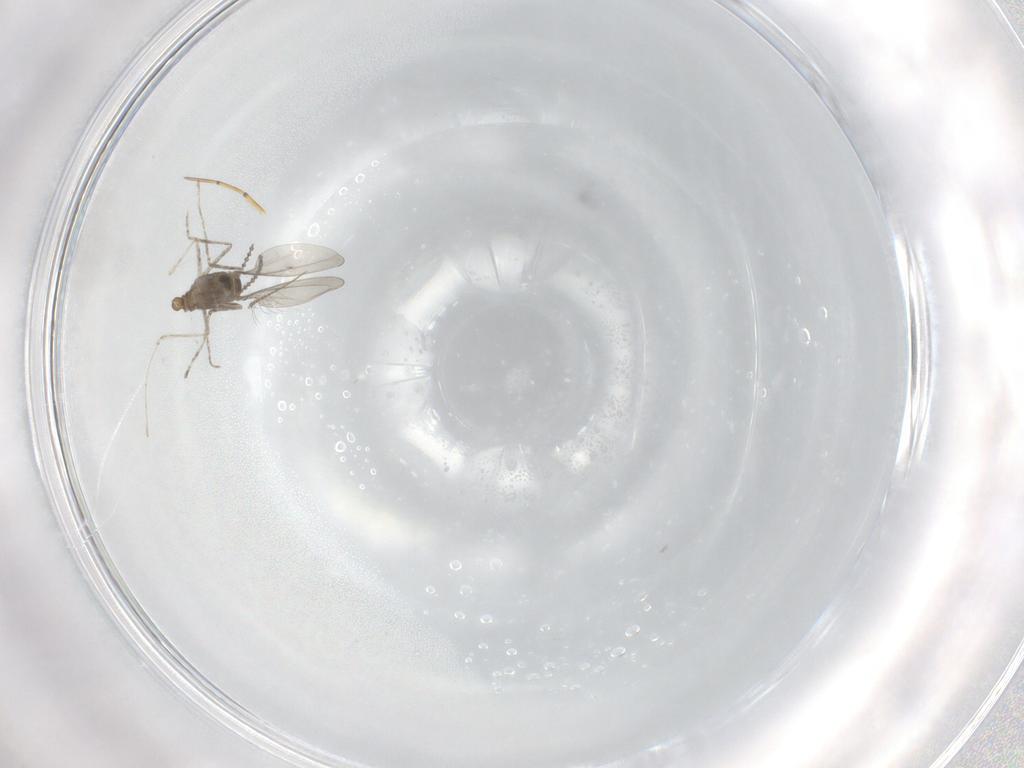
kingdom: Animalia
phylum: Arthropoda
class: Insecta
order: Diptera
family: Cecidomyiidae
